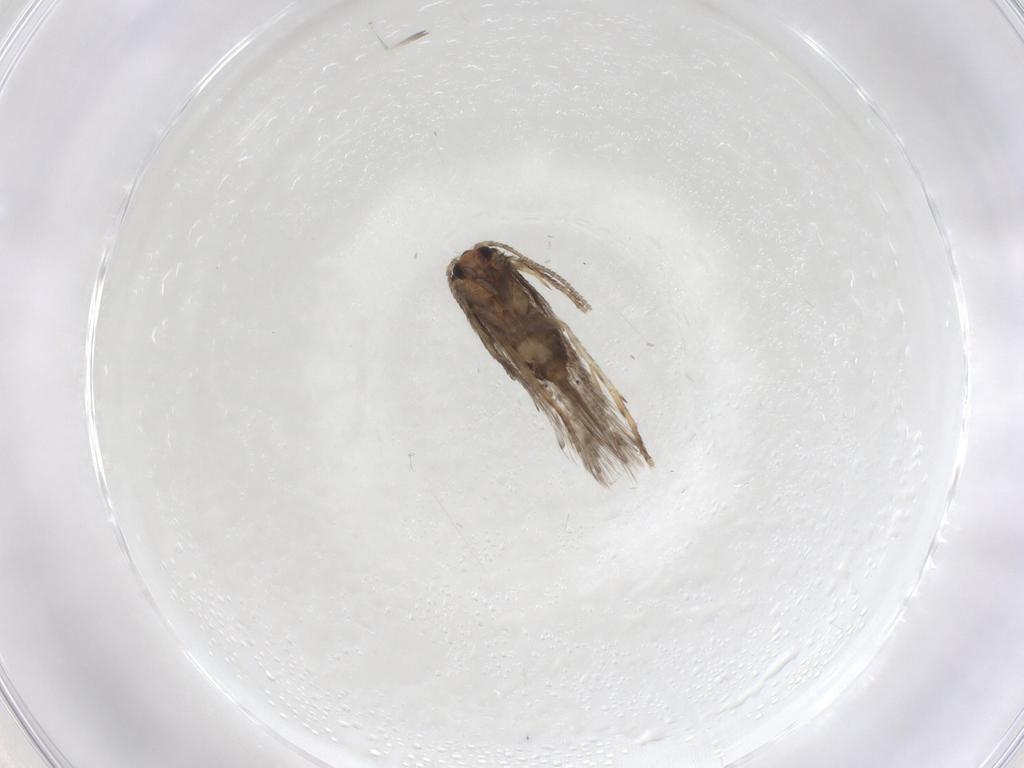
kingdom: Animalia
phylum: Arthropoda
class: Insecta
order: Lepidoptera
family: Nepticulidae
